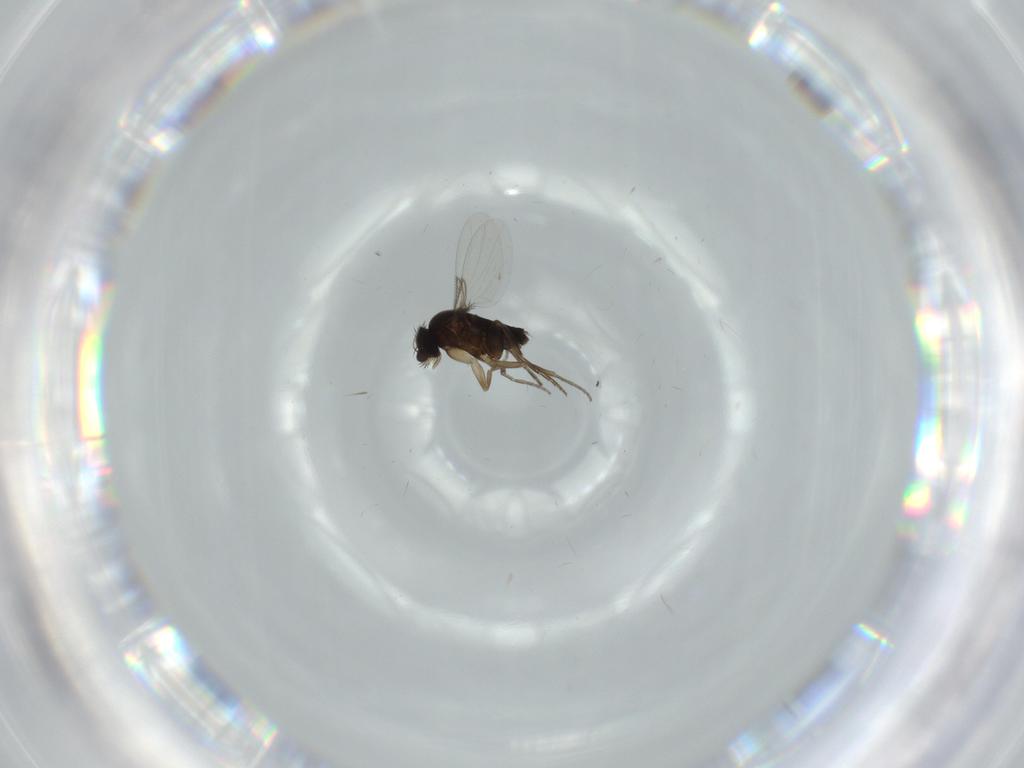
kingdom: Animalia
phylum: Arthropoda
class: Insecta
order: Diptera
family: Phoridae
